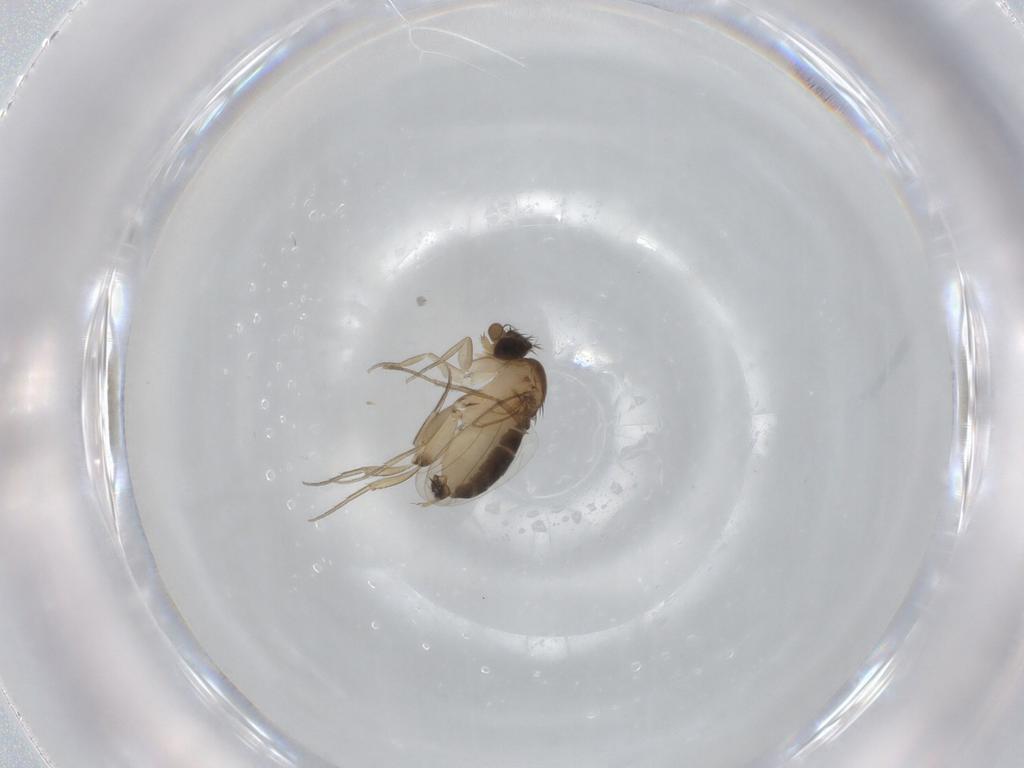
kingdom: Animalia
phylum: Arthropoda
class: Insecta
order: Diptera
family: Phoridae
